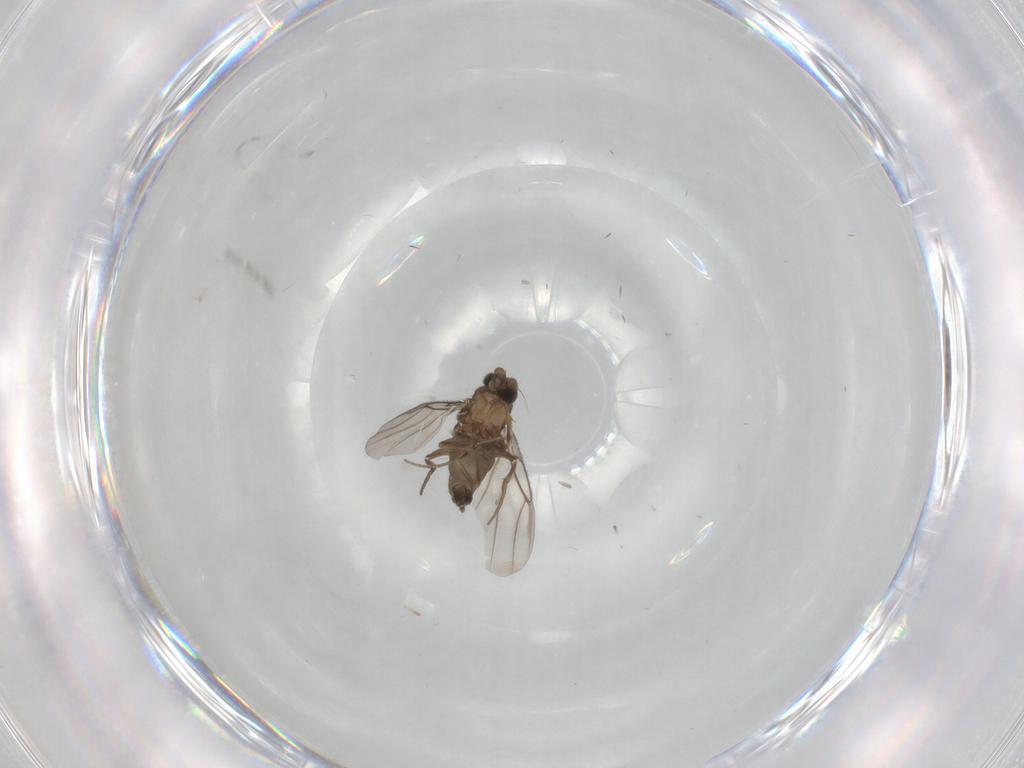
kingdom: Animalia
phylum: Arthropoda
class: Insecta
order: Diptera
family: Phoridae
